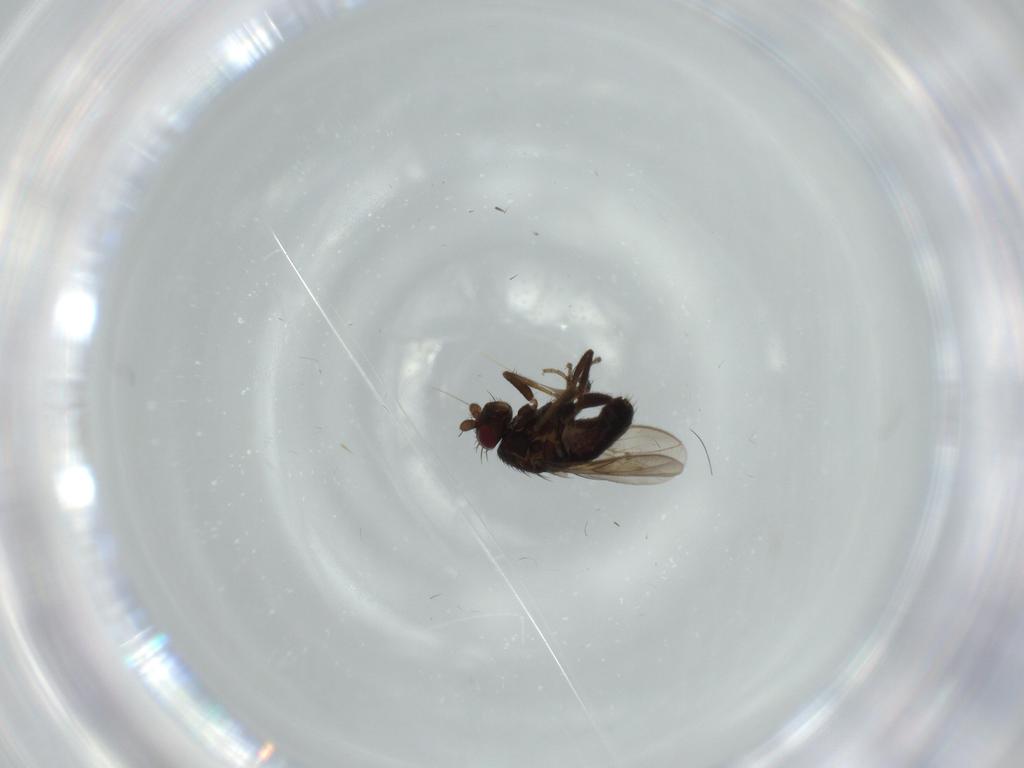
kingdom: Animalia
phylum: Arthropoda
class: Insecta
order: Diptera
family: Sphaeroceridae
